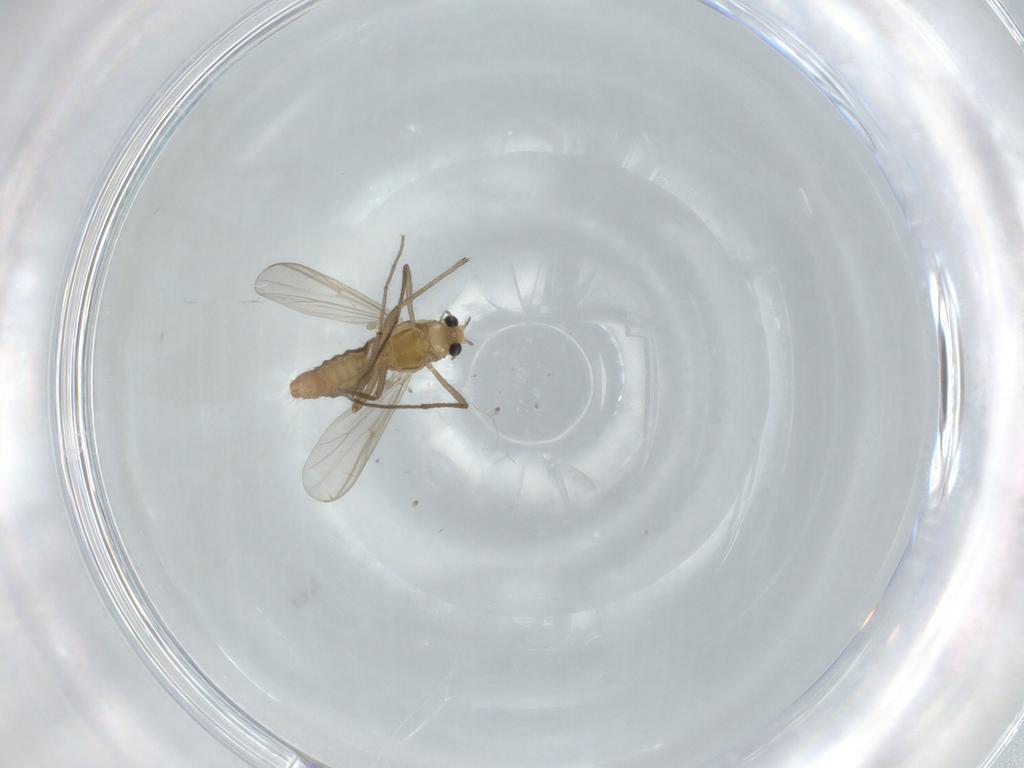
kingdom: Animalia
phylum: Arthropoda
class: Insecta
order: Diptera
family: Chironomidae
